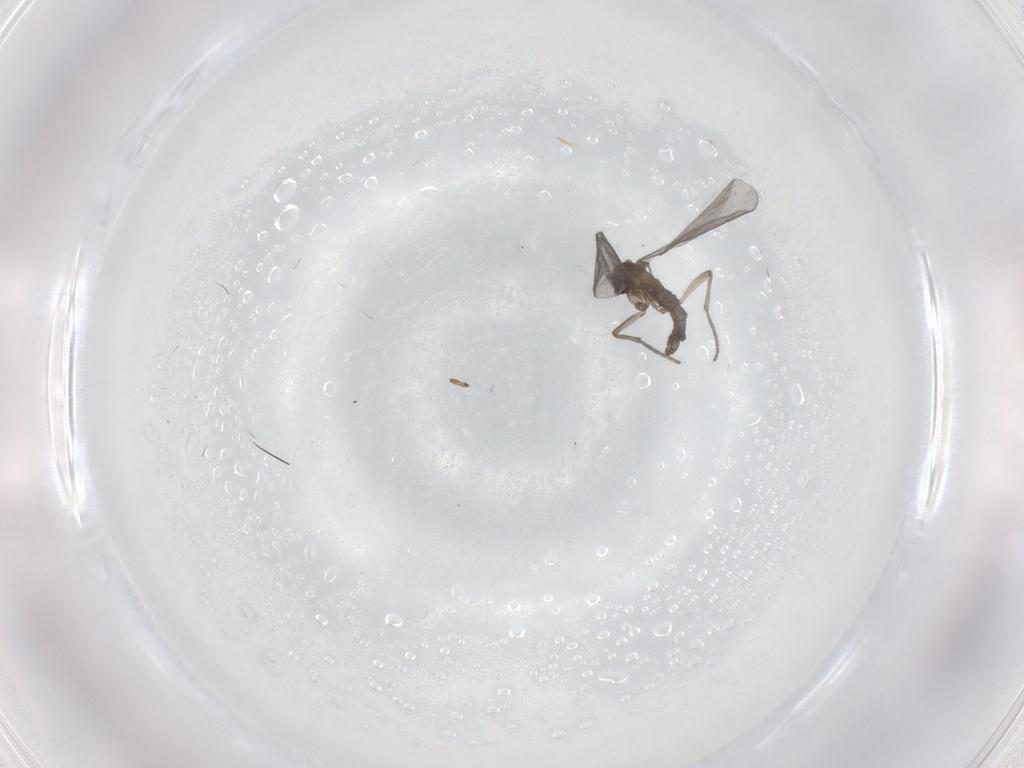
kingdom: Animalia
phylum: Arthropoda
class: Insecta
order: Diptera
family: Sciaridae
